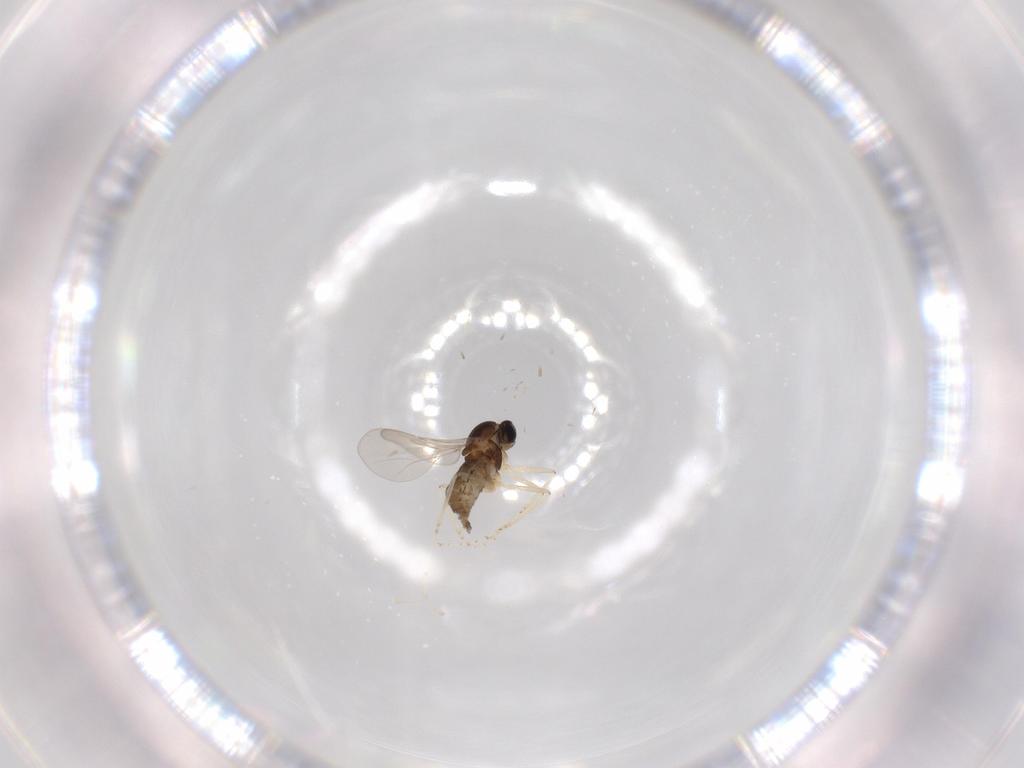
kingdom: Animalia
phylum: Arthropoda
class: Insecta
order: Diptera
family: Cecidomyiidae
